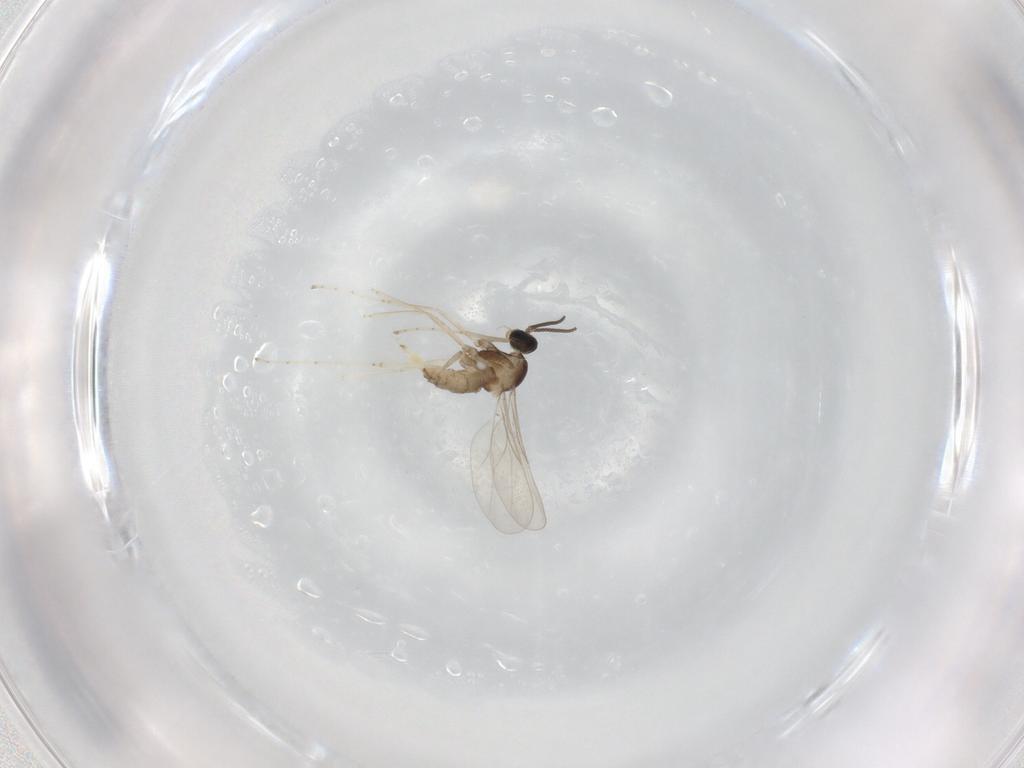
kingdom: Animalia
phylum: Arthropoda
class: Insecta
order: Diptera
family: Cecidomyiidae
